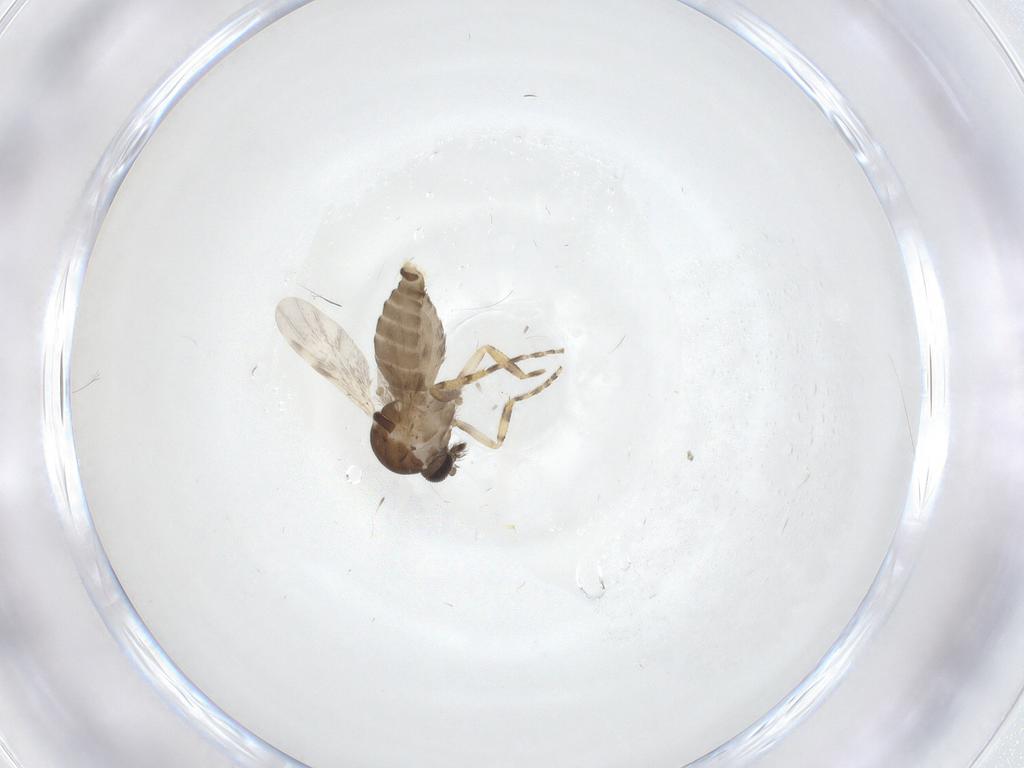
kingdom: Animalia
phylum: Arthropoda
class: Insecta
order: Diptera
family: Ceratopogonidae
